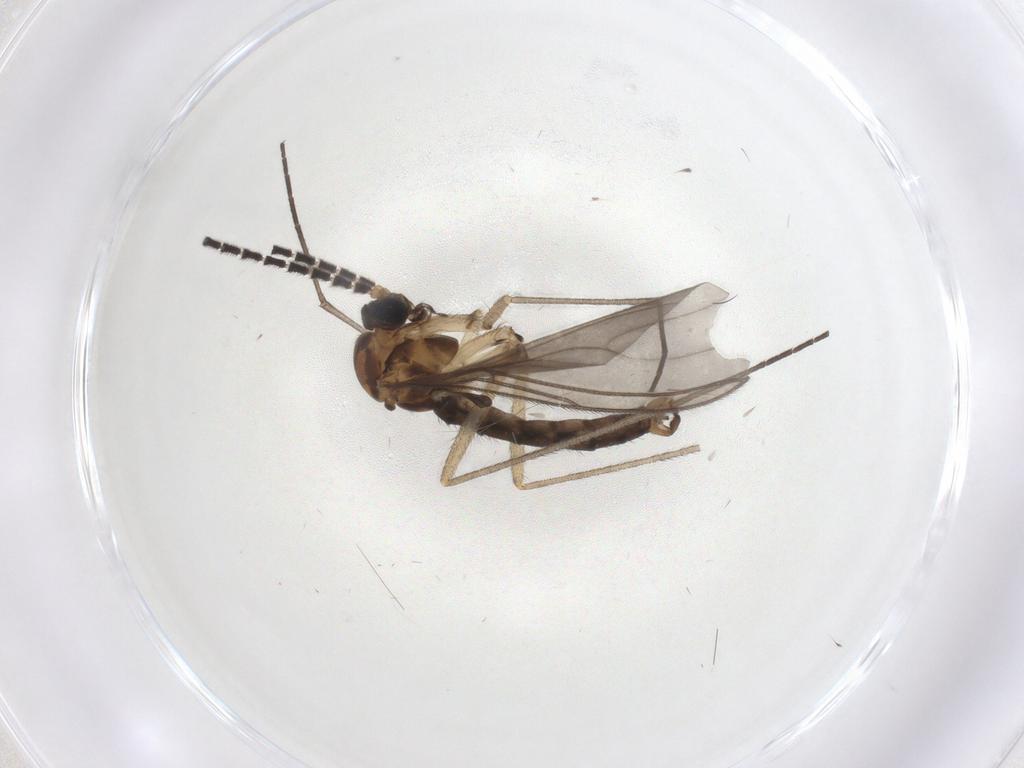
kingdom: Animalia
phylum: Arthropoda
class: Insecta
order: Diptera
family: Sciaridae
